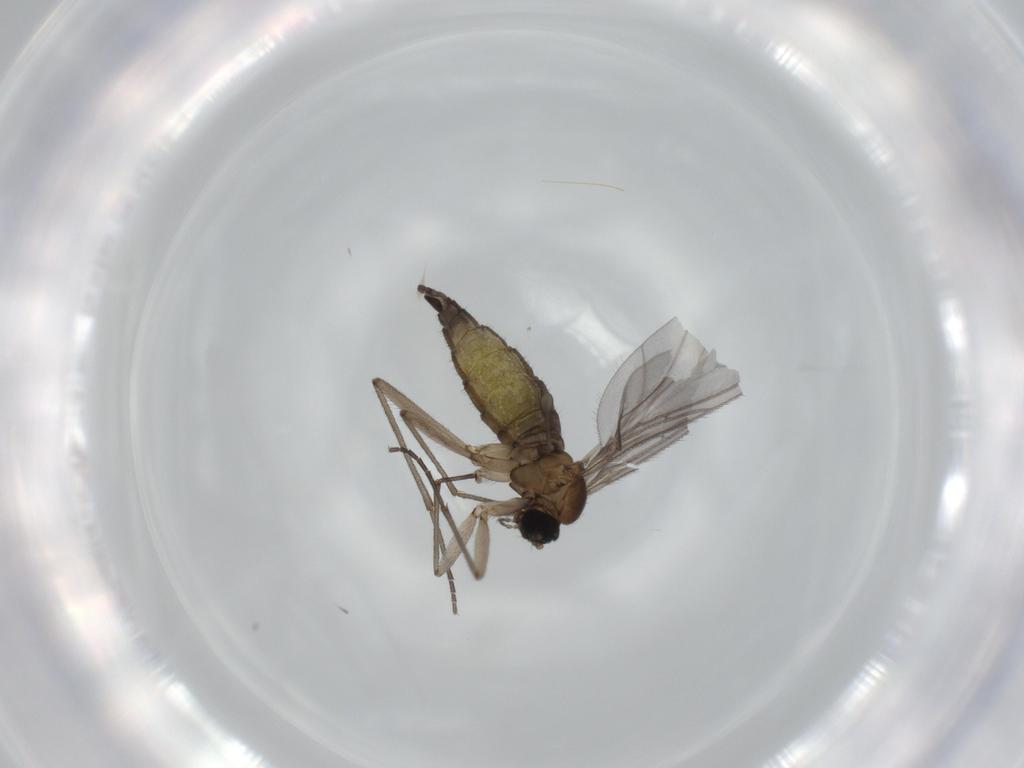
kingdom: Animalia
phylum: Arthropoda
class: Insecta
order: Diptera
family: Sciaridae
